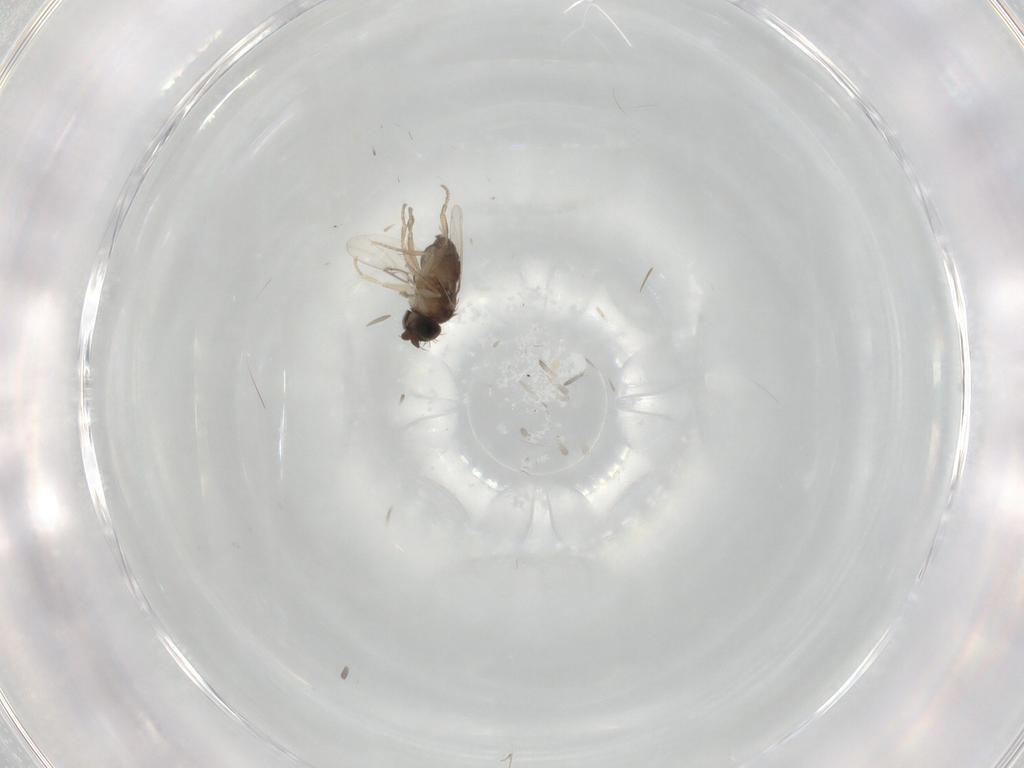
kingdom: Animalia
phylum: Arthropoda
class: Insecta
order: Diptera
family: Phoridae
